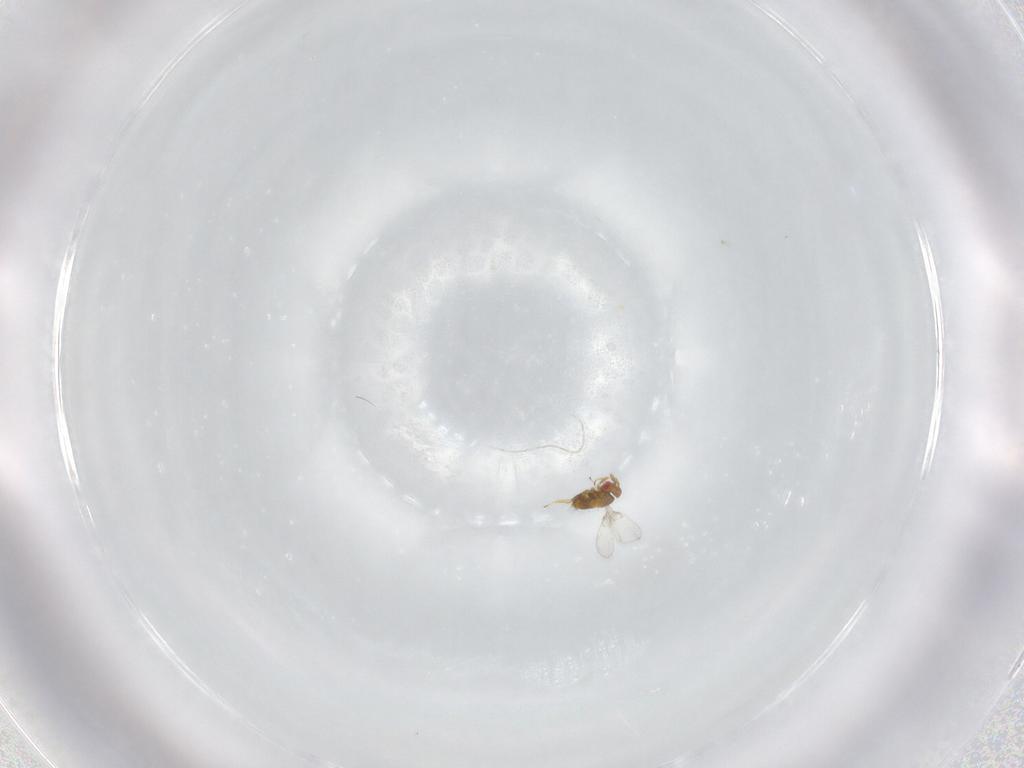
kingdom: Animalia
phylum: Arthropoda
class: Insecta
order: Hymenoptera
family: Trichogrammatidae
